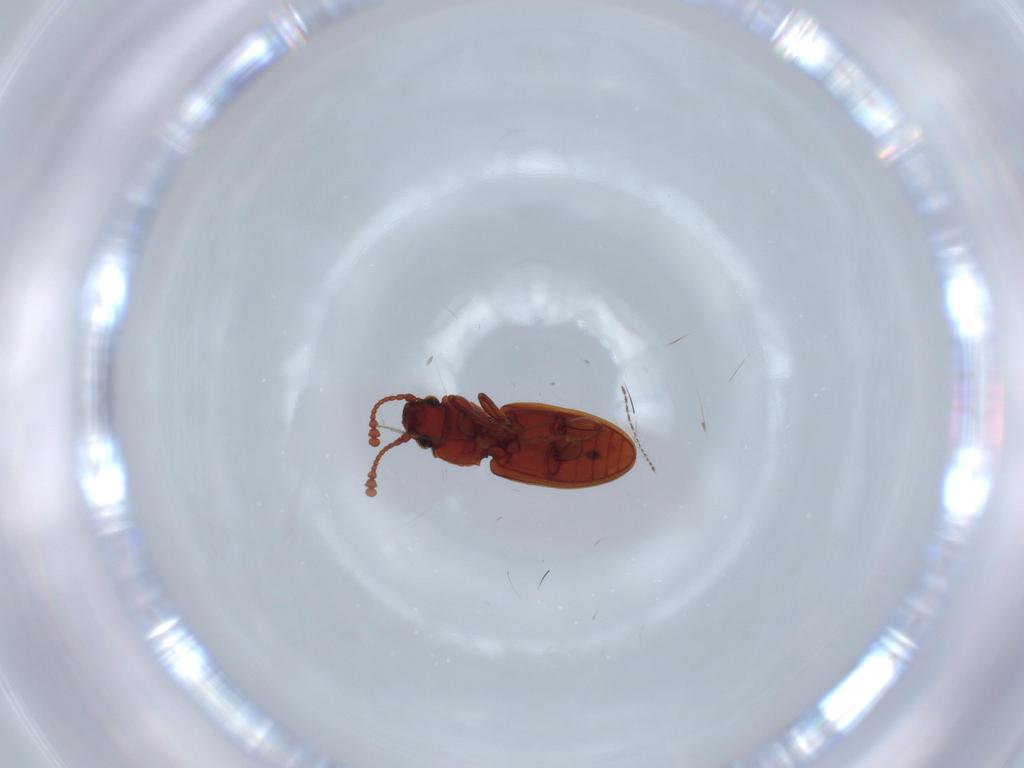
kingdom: Animalia
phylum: Arthropoda
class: Insecta
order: Coleoptera
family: Silvanidae
